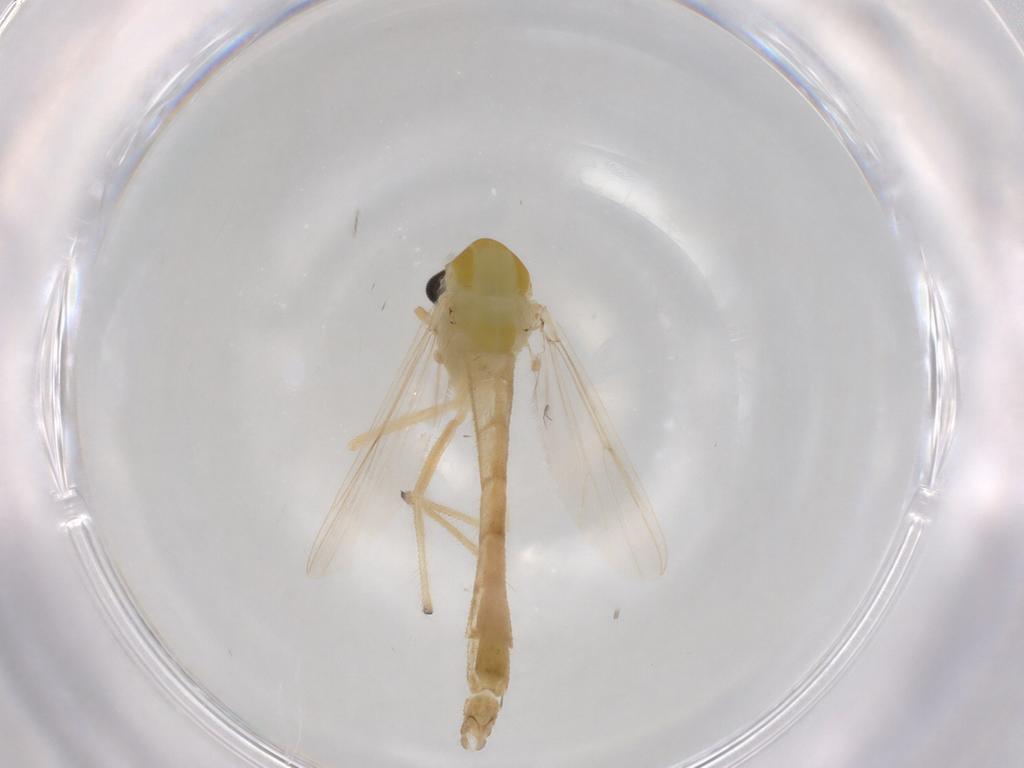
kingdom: Animalia
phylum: Arthropoda
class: Insecta
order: Diptera
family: Chironomidae
